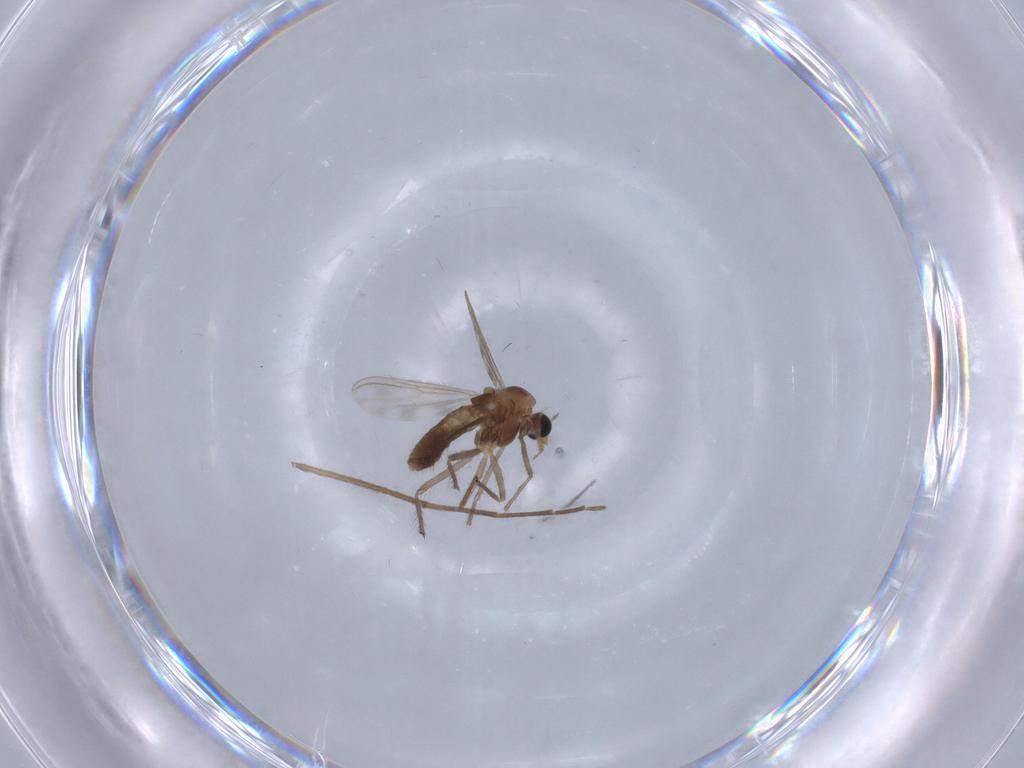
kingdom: Animalia
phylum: Arthropoda
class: Insecta
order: Diptera
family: Chironomidae
